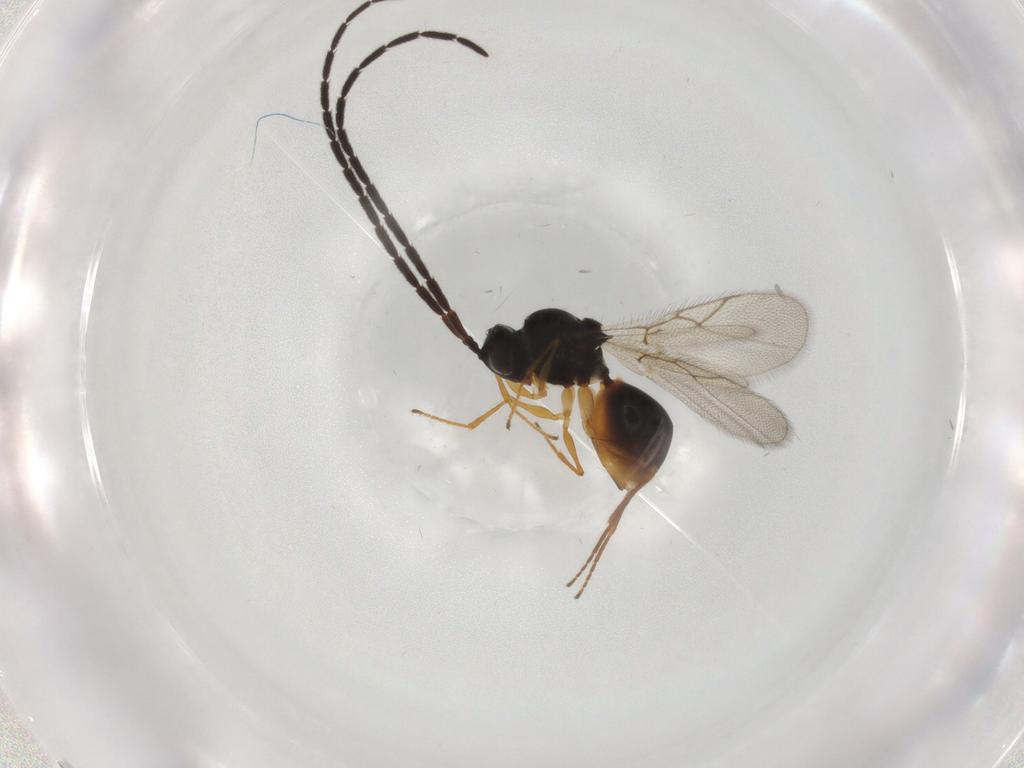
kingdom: Animalia
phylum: Arthropoda
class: Insecta
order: Hymenoptera
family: Figitidae
